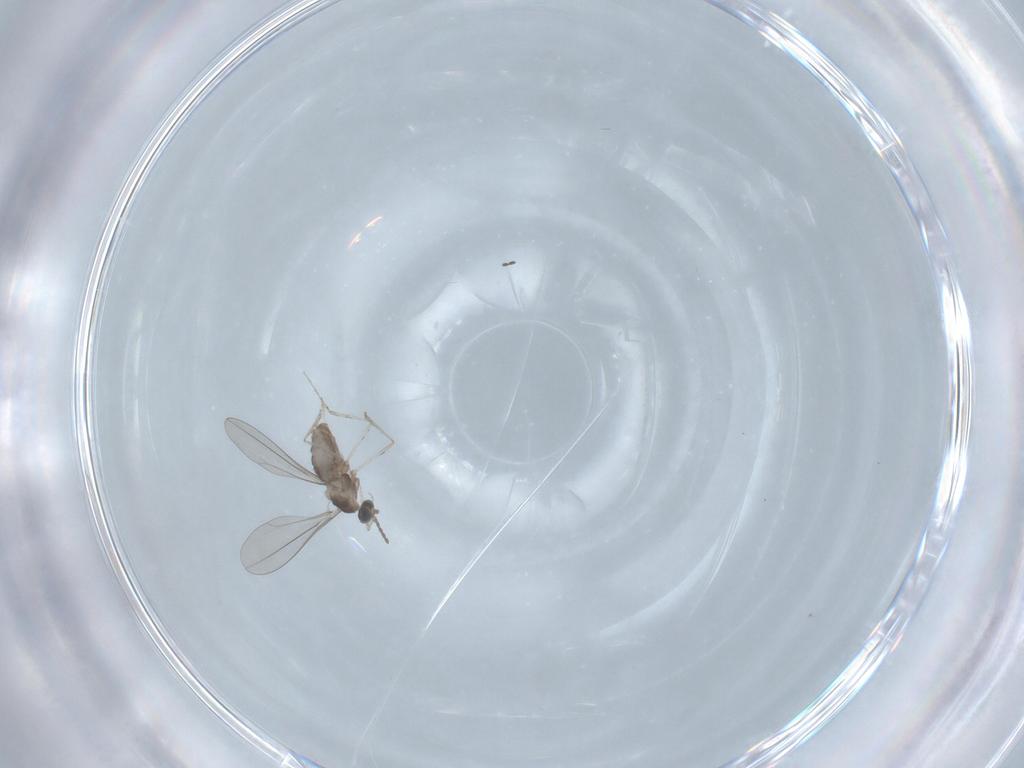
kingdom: Animalia
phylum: Arthropoda
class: Insecta
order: Diptera
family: Cecidomyiidae
